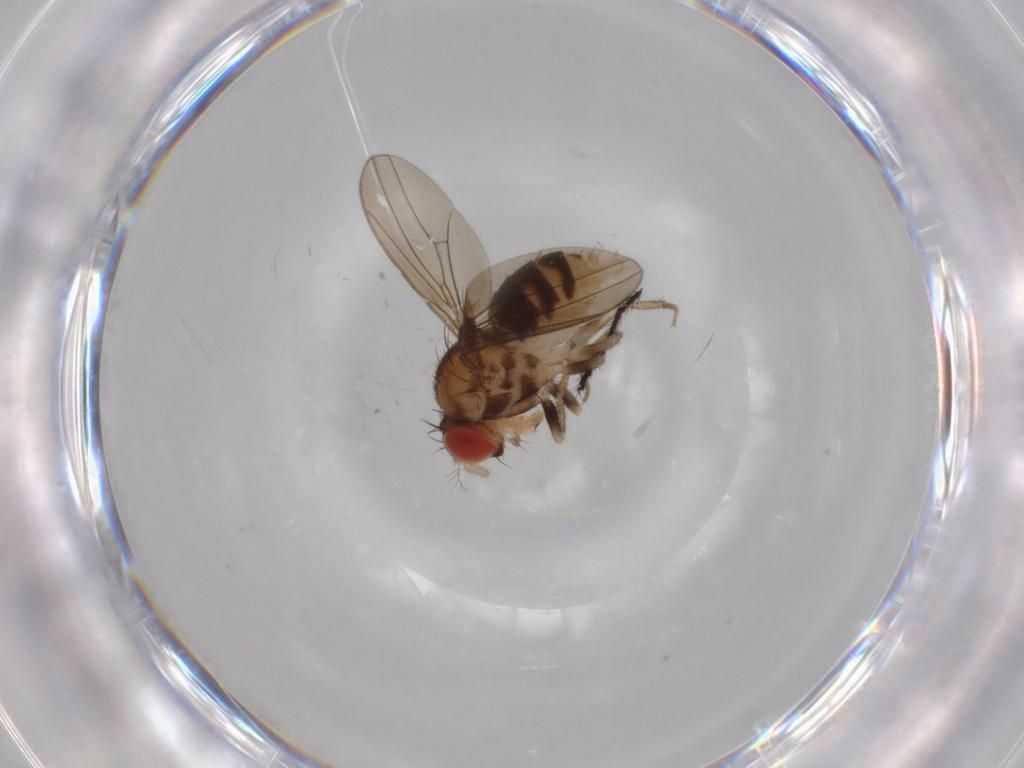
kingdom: Animalia
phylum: Arthropoda
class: Insecta
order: Diptera
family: Drosophilidae
